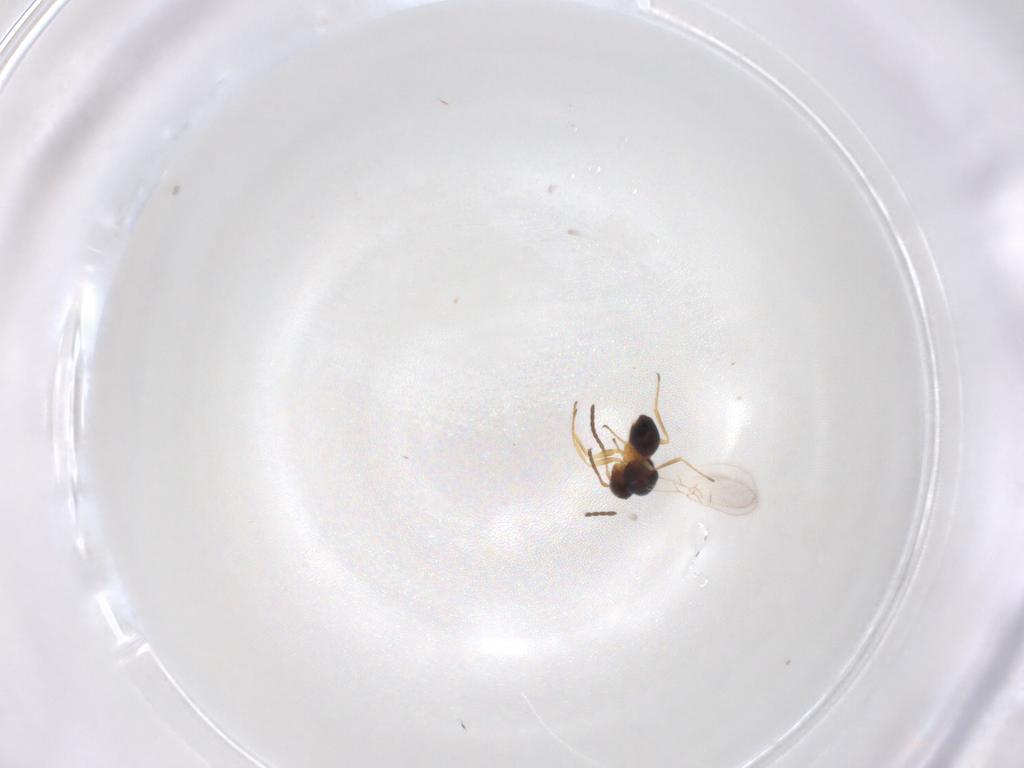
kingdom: Animalia
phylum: Arthropoda
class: Insecta
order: Hymenoptera
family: Figitidae
